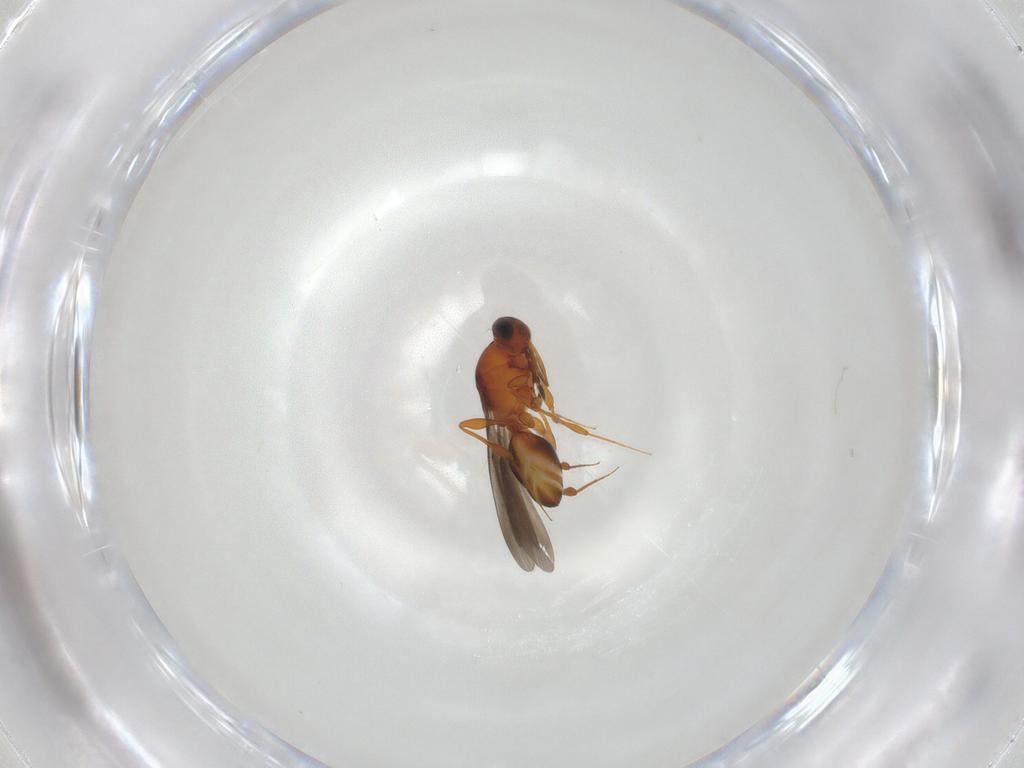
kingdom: Animalia
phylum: Arthropoda
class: Insecta
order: Hymenoptera
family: Platygastridae
